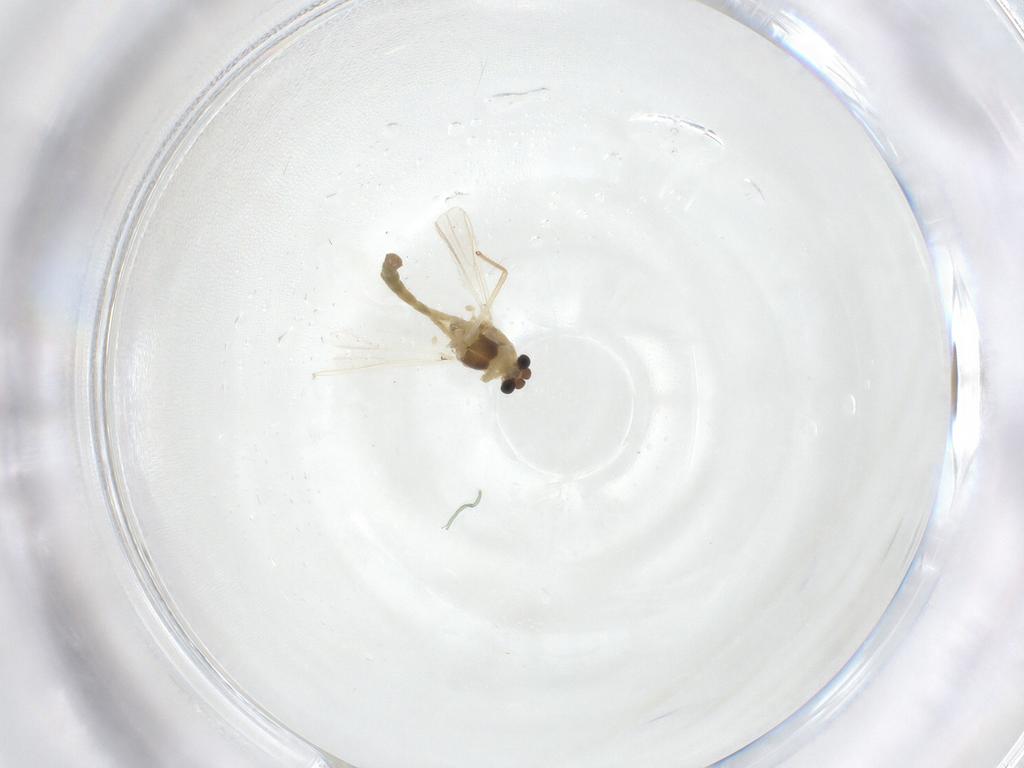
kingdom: Animalia
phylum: Arthropoda
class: Insecta
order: Diptera
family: Chironomidae
